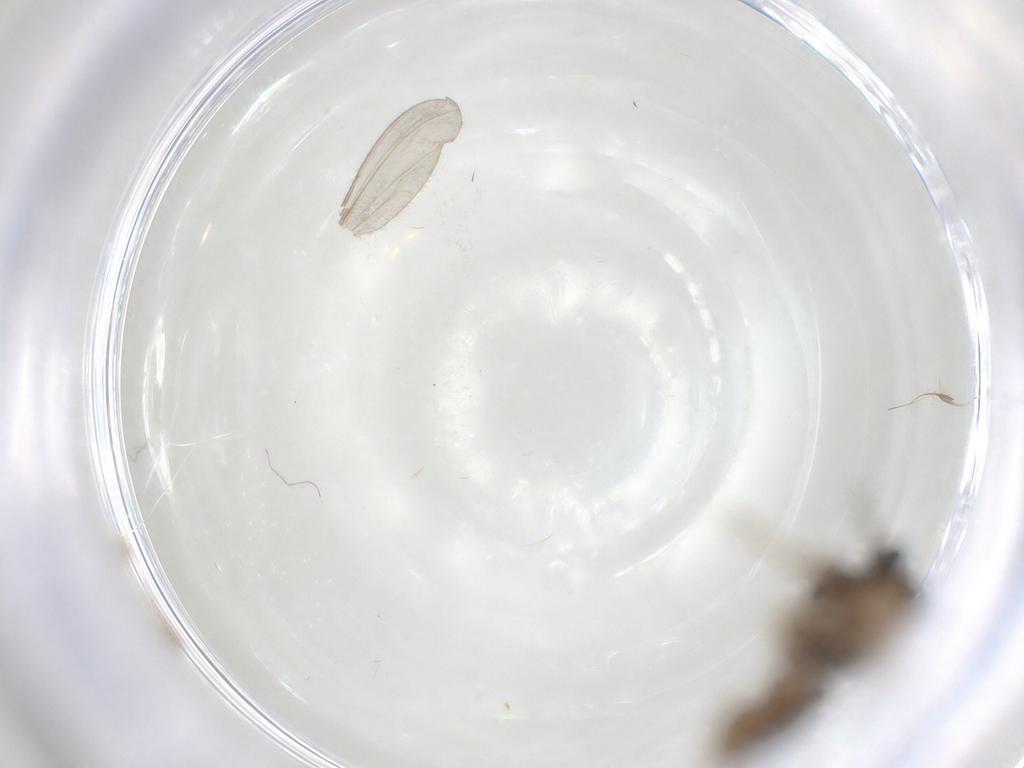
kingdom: Animalia
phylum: Arthropoda
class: Insecta
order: Diptera
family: Cecidomyiidae
